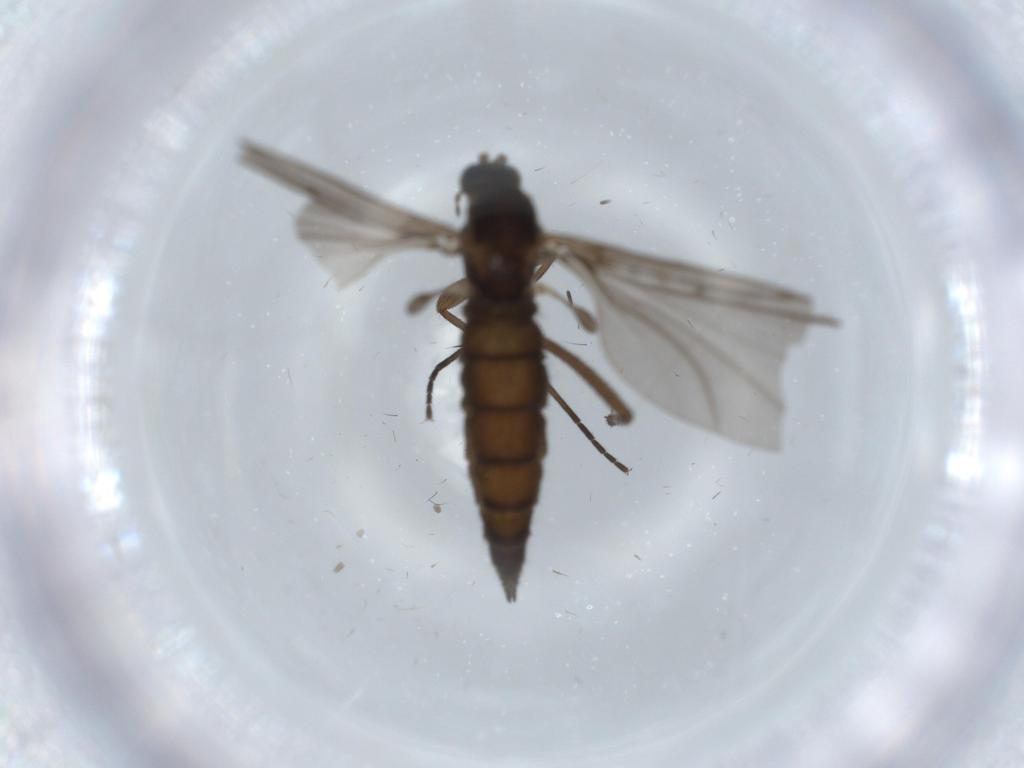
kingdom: Animalia
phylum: Arthropoda
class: Insecta
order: Diptera
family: Sciaridae
